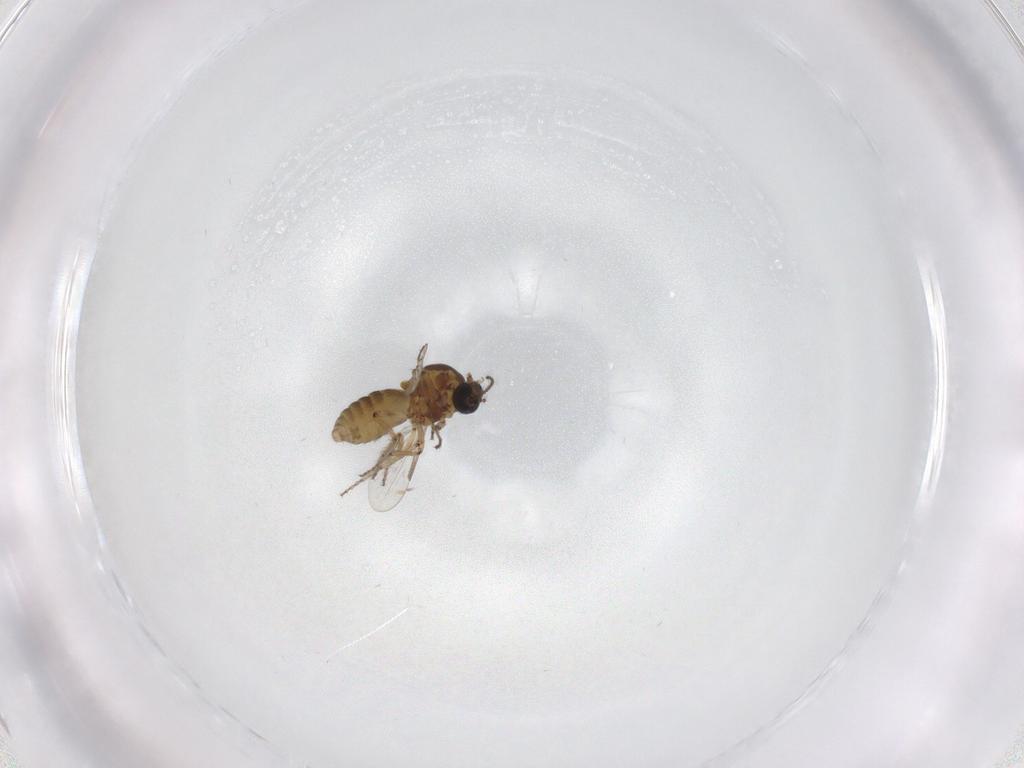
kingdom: Animalia
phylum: Arthropoda
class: Insecta
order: Diptera
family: Ceratopogonidae
